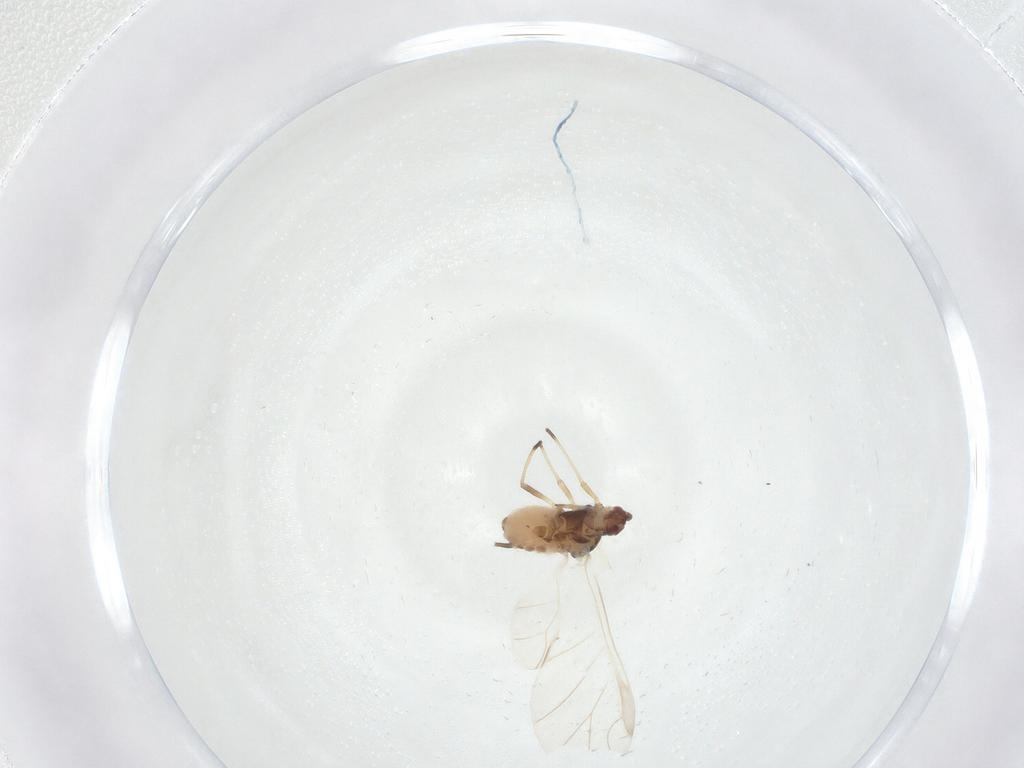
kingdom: Animalia
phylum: Arthropoda
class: Insecta
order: Hemiptera
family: Aphididae
